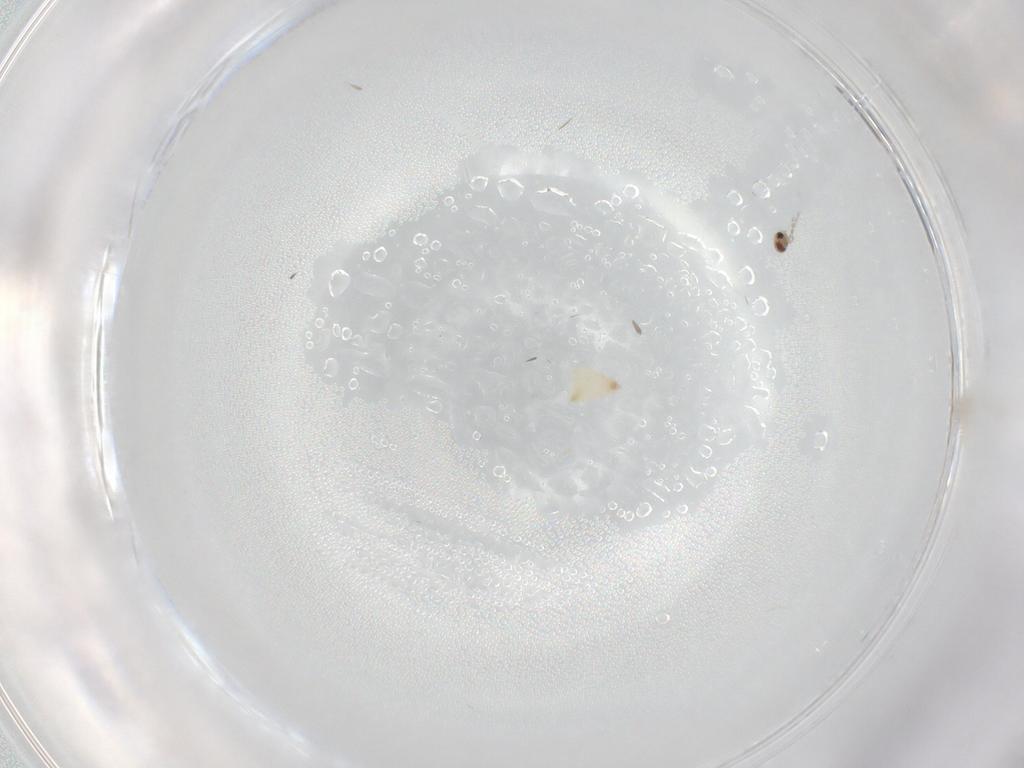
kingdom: Animalia
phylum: Arthropoda
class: Insecta
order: Diptera
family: Cecidomyiidae
